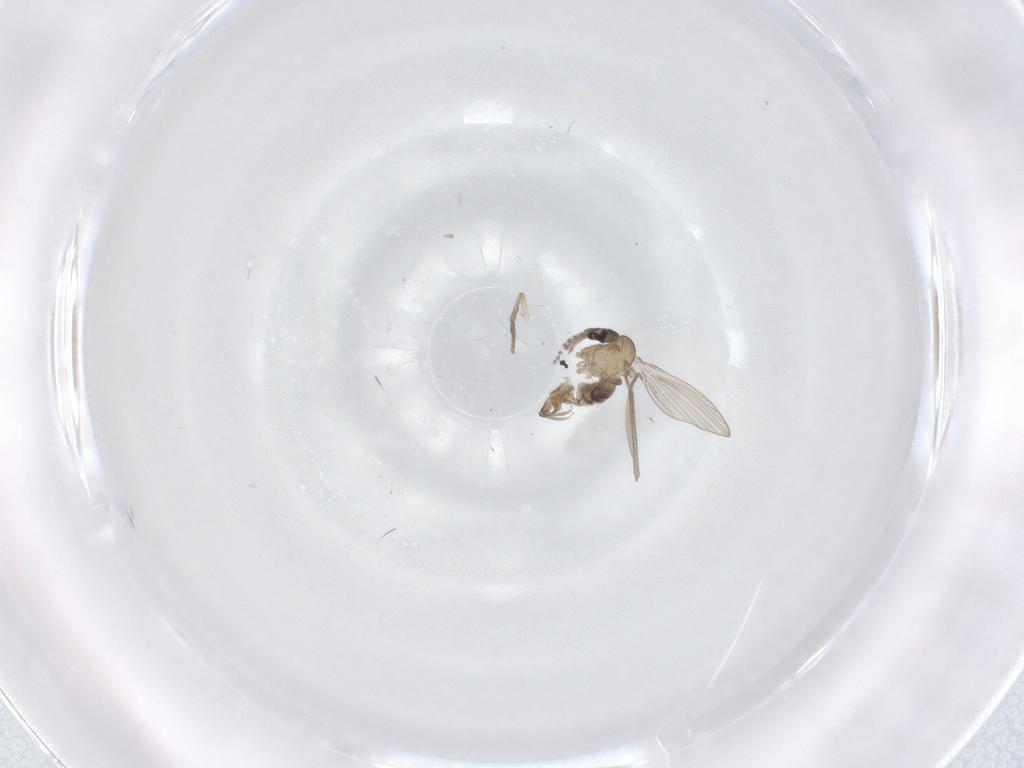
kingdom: Animalia
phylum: Arthropoda
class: Insecta
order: Diptera
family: Psychodidae
